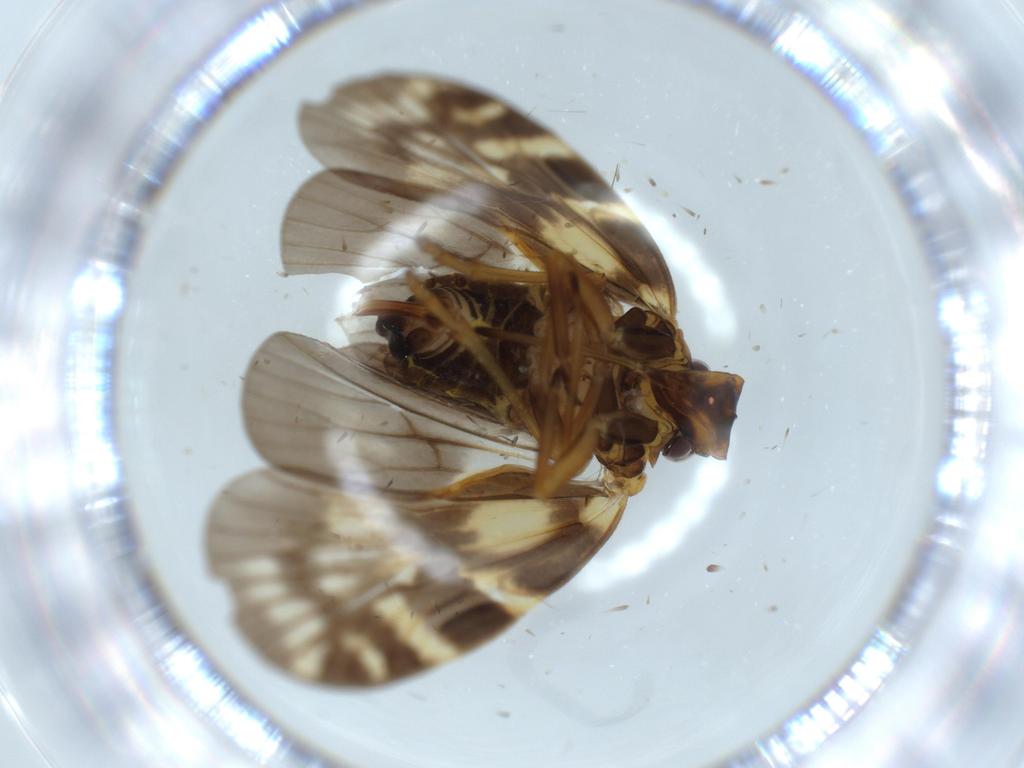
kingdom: Animalia
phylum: Arthropoda
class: Insecta
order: Hemiptera
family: Cixiidae
